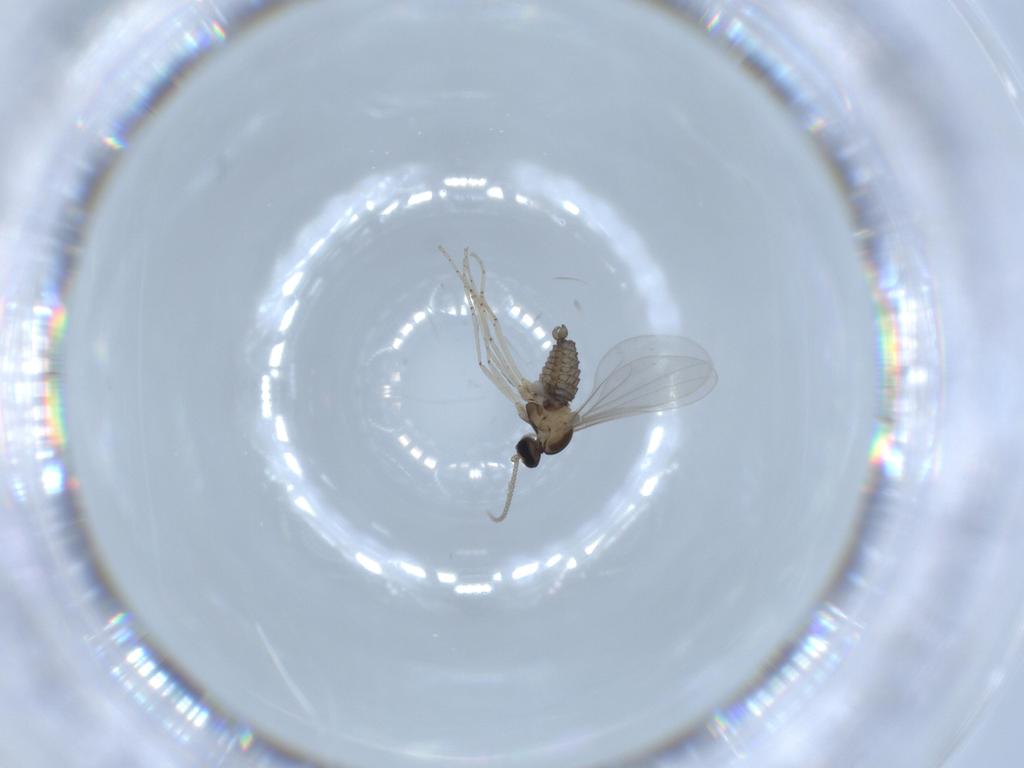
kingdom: Animalia
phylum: Arthropoda
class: Insecta
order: Diptera
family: Cecidomyiidae
